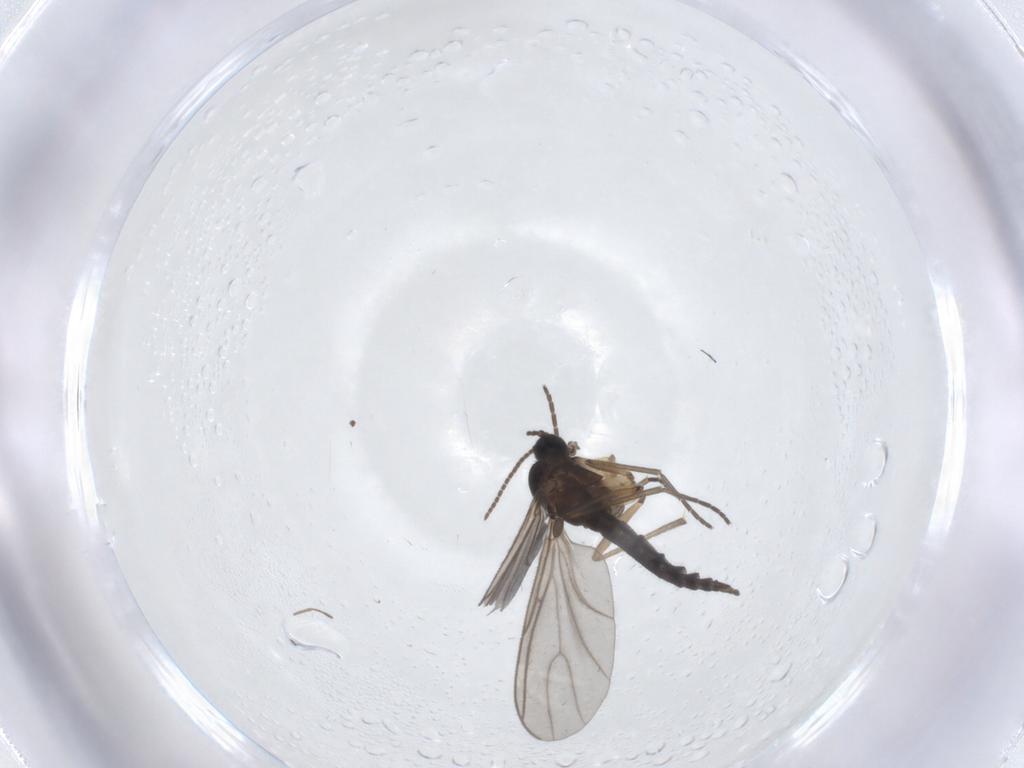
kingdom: Animalia
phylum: Arthropoda
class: Insecta
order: Diptera
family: Sciaridae
